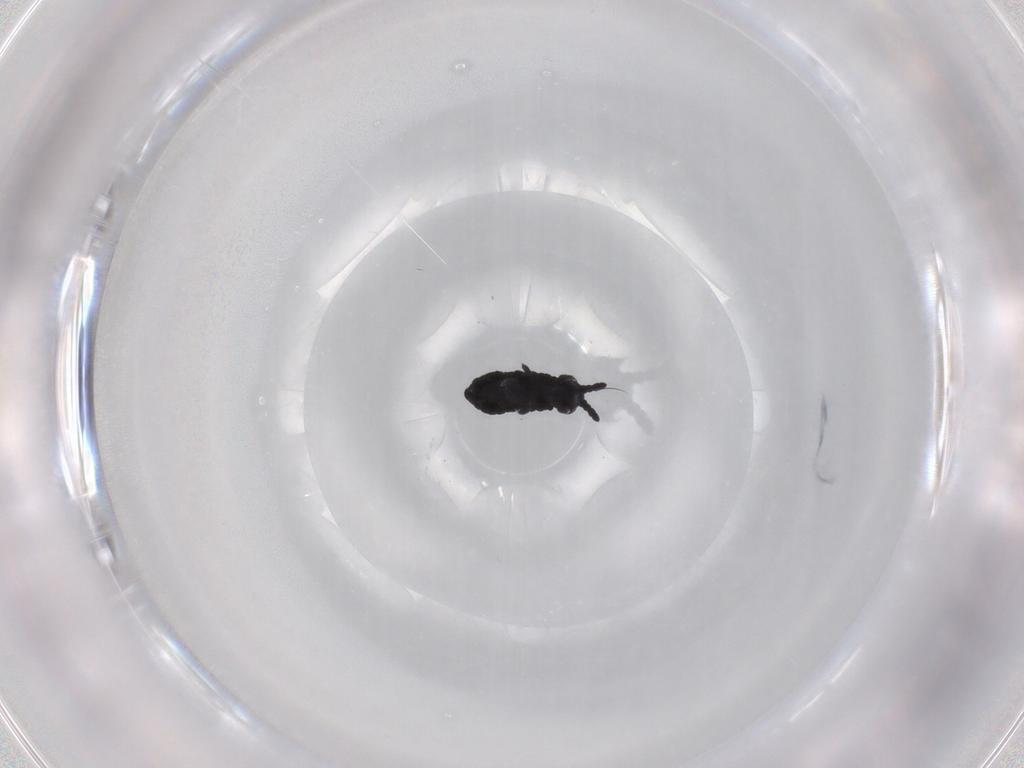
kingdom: Animalia
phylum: Arthropoda
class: Collembola
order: Poduromorpha
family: Hypogastruridae
